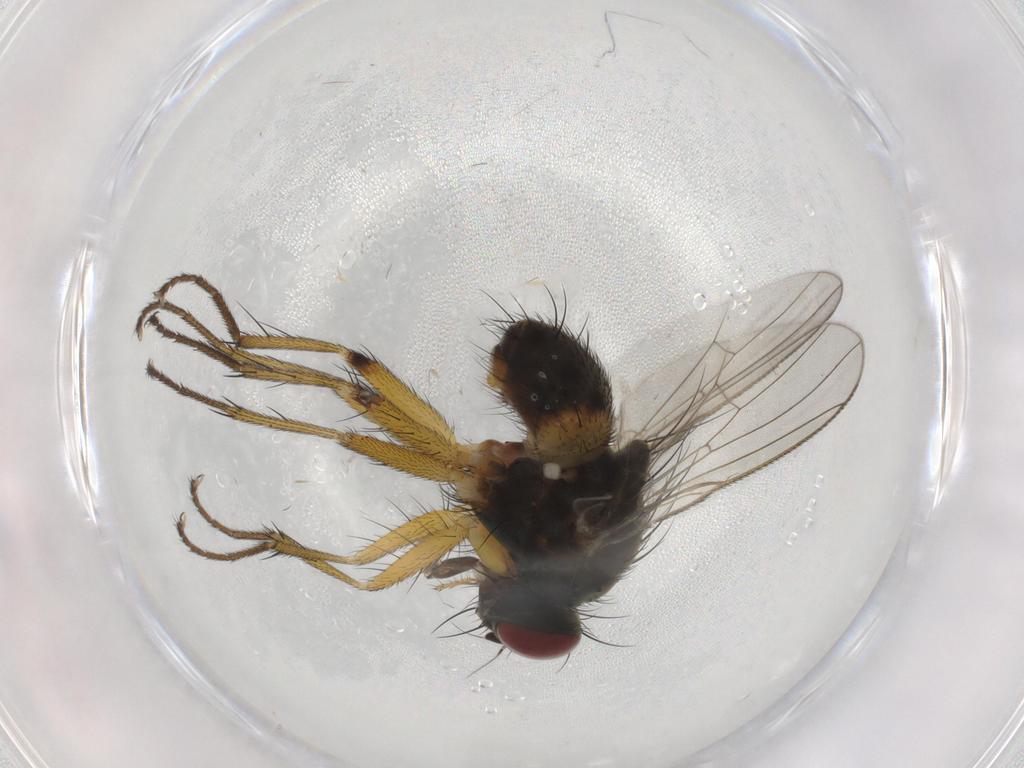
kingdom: Animalia
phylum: Arthropoda
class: Insecta
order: Diptera
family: Muscidae
